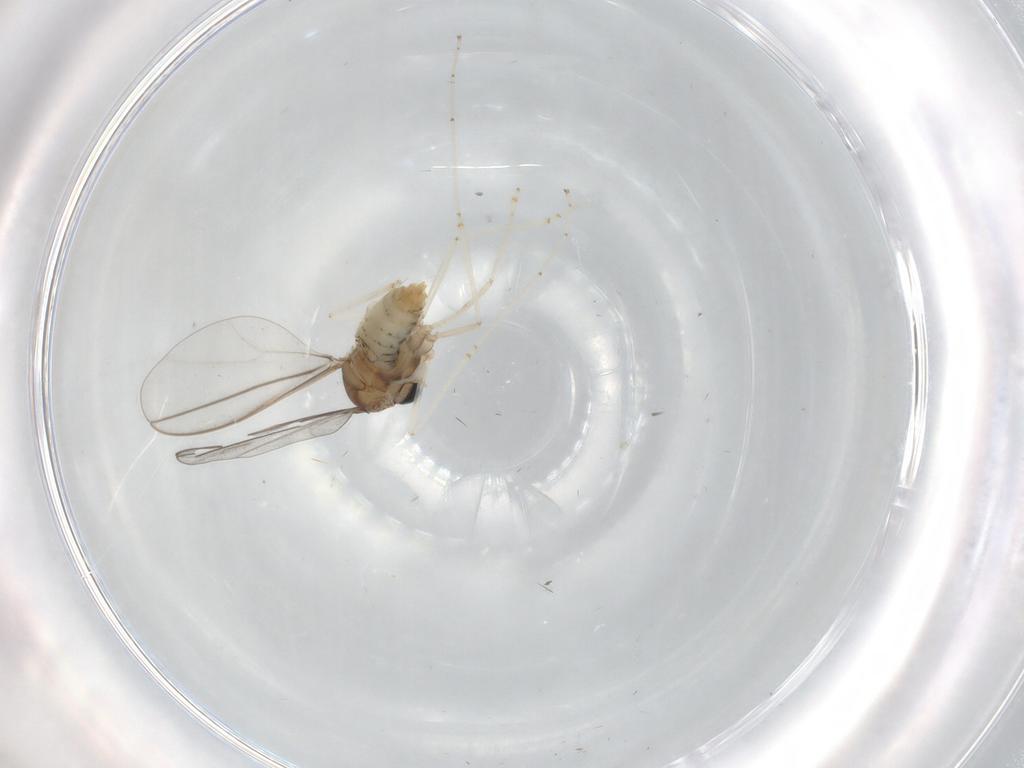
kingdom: Animalia
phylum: Arthropoda
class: Insecta
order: Diptera
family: Cecidomyiidae
